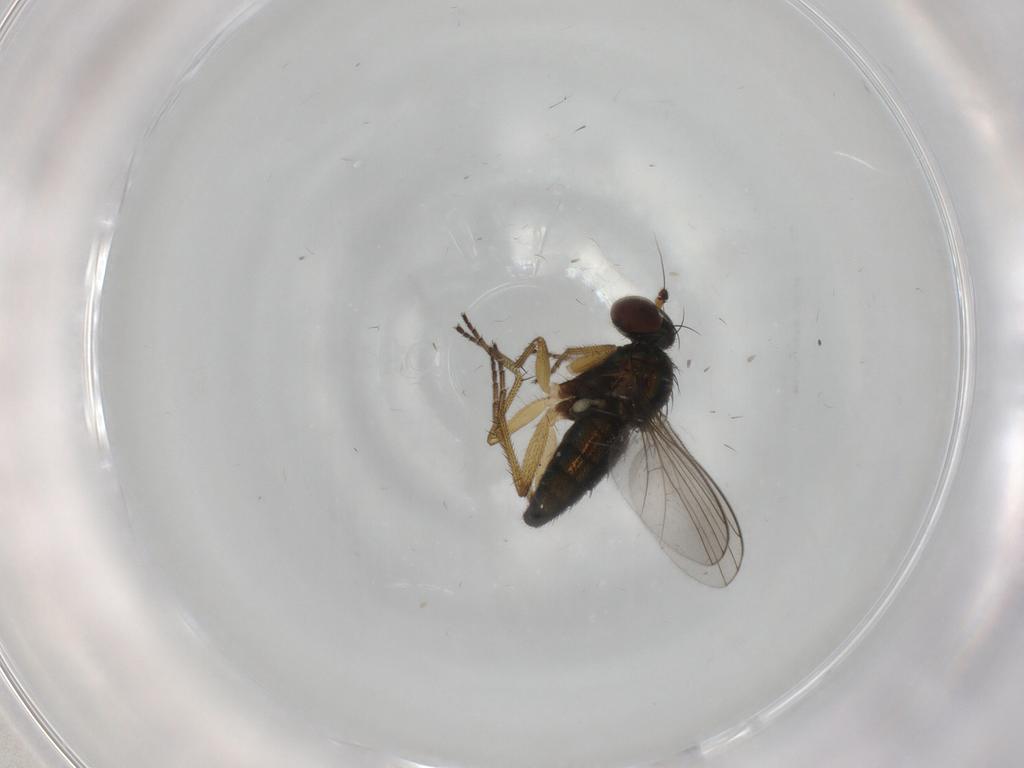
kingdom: Animalia
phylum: Arthropoda
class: Insecta
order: Diptera
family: Dolichopodidae
